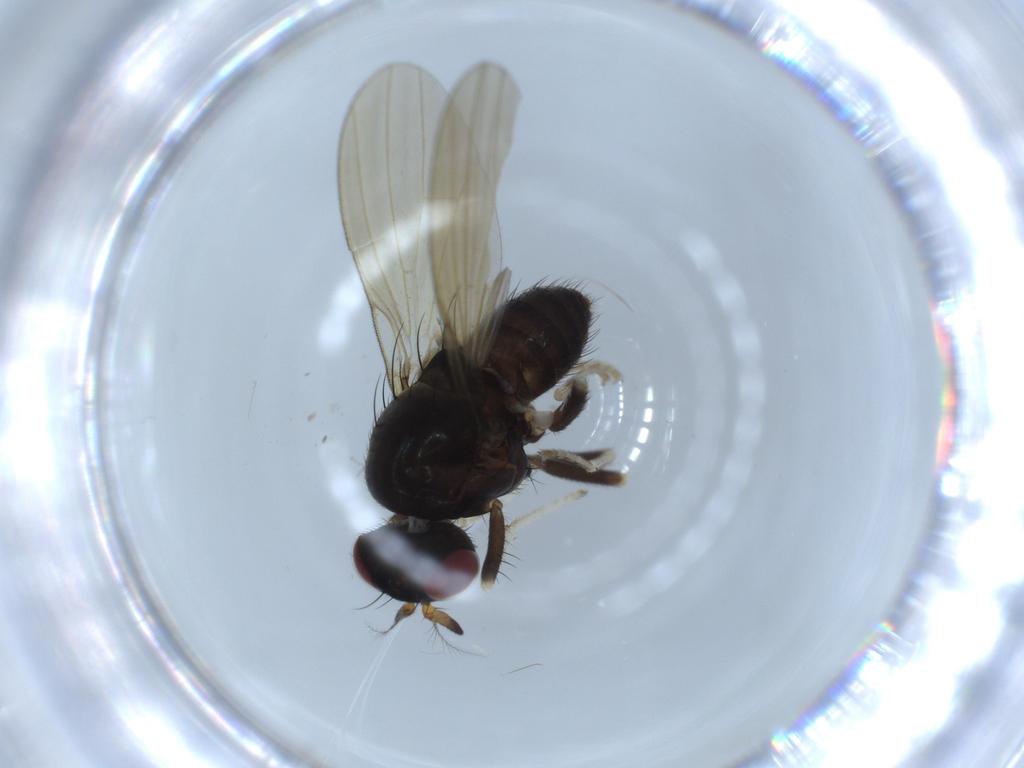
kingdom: Animalia
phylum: Arthropoda
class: Insecta
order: Diptera
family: Lauxaniidae
